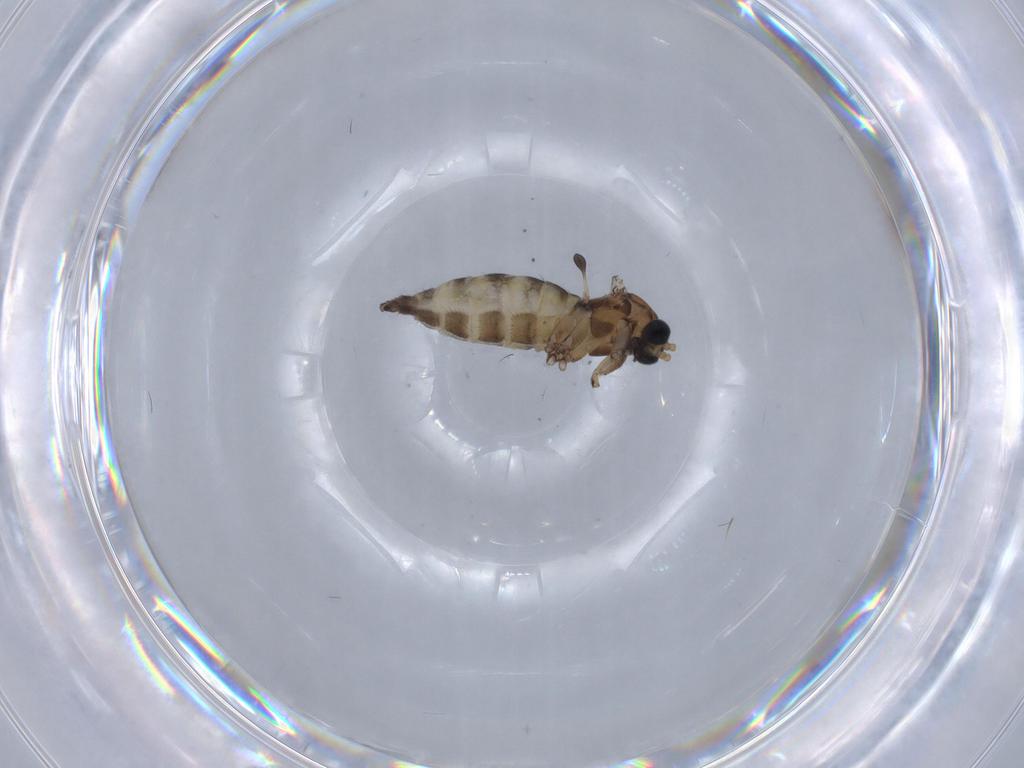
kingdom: Animalia
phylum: Arthropoda
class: Insecta
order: Diptera
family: Sciaridae
